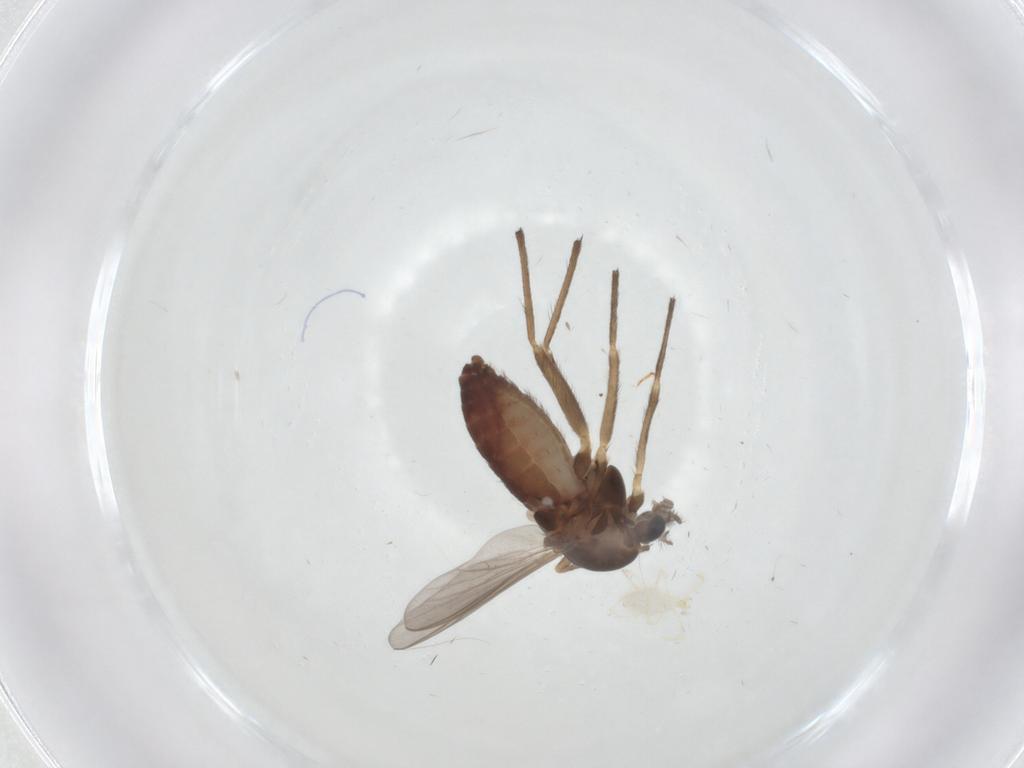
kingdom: Animalia
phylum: Arthropoda
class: Insecta
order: Diptera
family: Chironomidae
